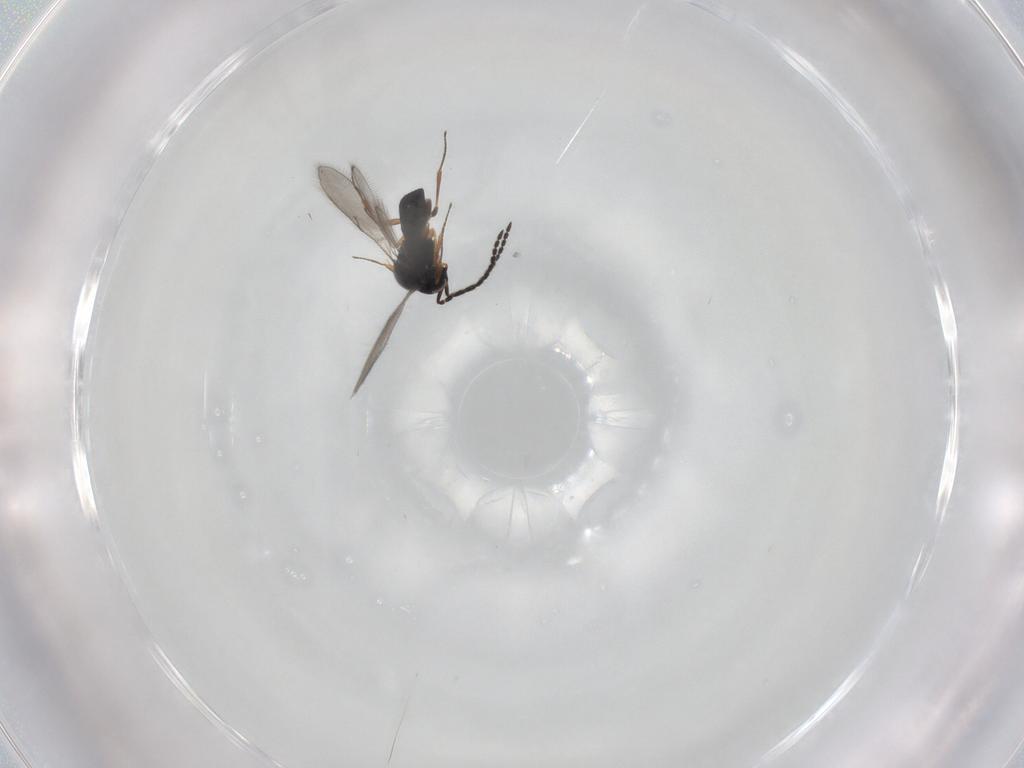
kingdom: Animalia
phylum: Arthropoda
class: Insecta
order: Hymenoptera
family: Scelionidae
